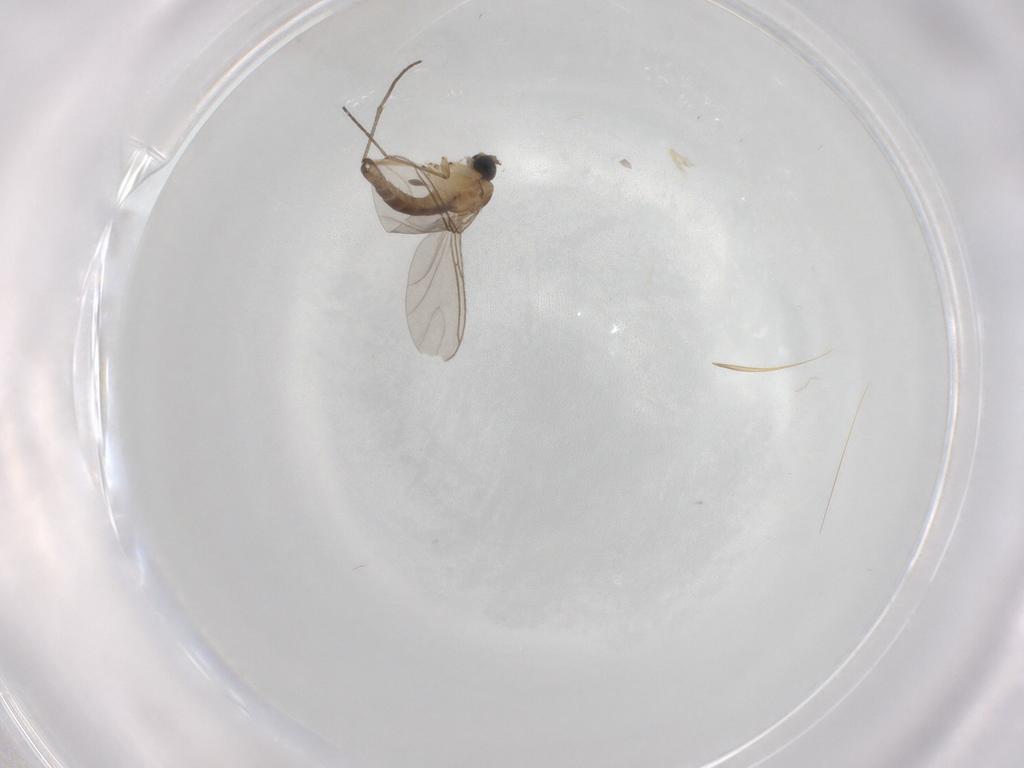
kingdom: Animalia
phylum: Arthropoda
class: Insecta
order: Diptera
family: Sciaridae
